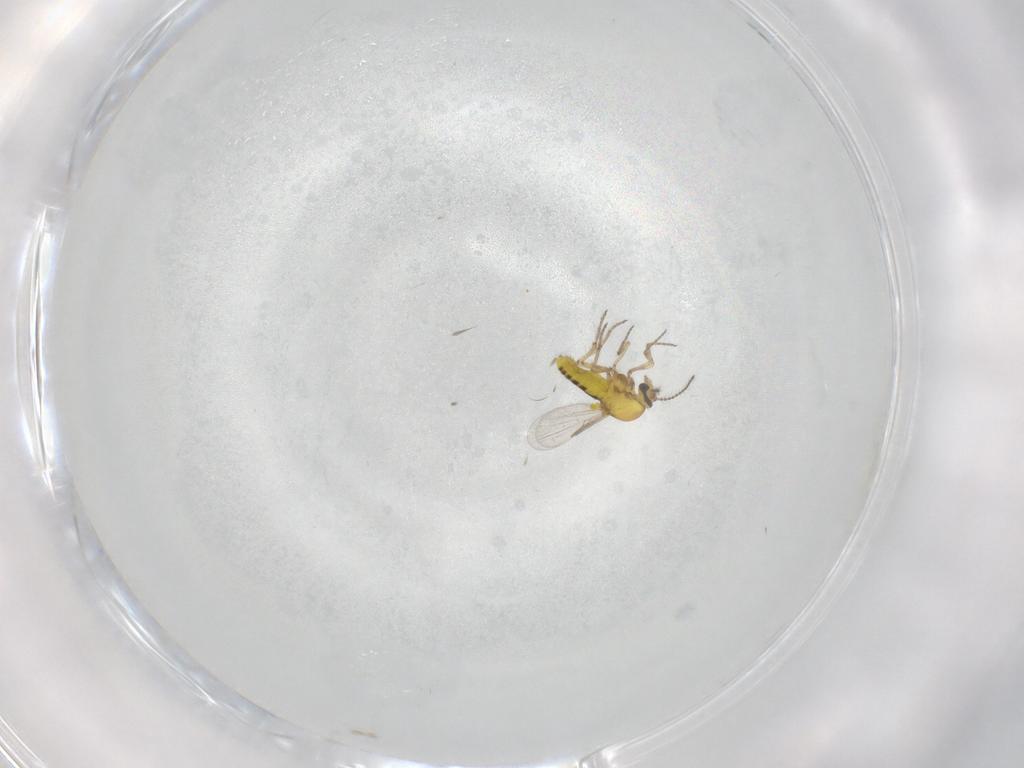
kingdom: Animalia
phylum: Arthropoda
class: Insecta
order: Diptera
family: Ceratopogonidae
